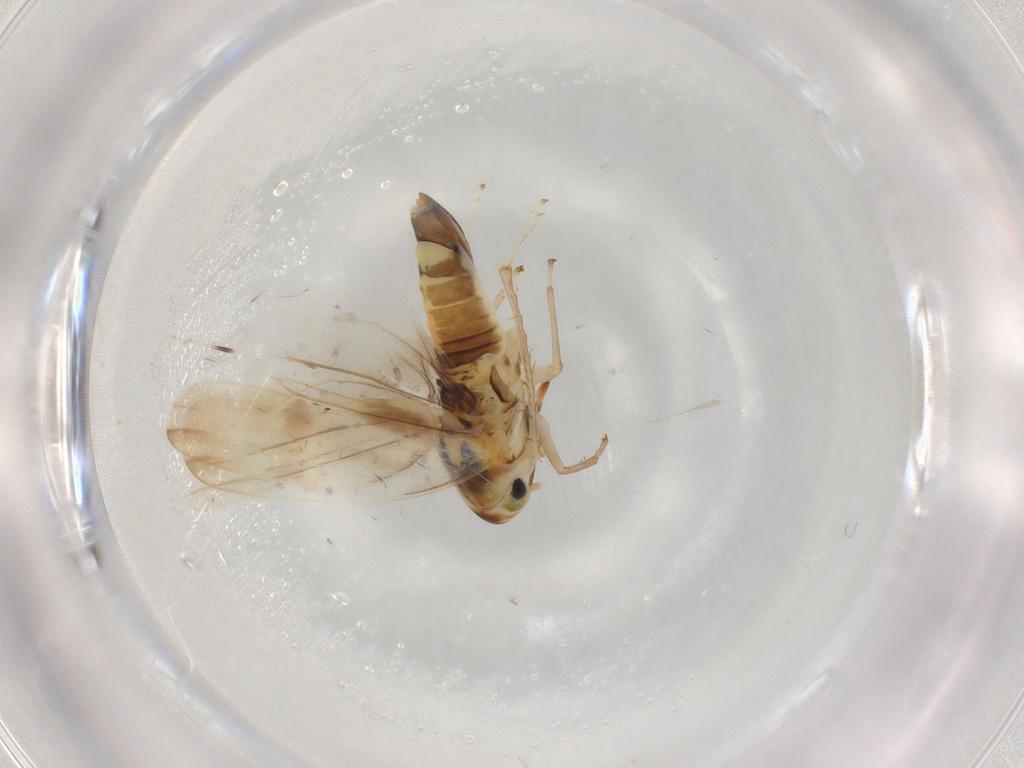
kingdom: Animalia
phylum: Arthropoda
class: Insecta
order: Hemiptera
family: Cicadellidae
